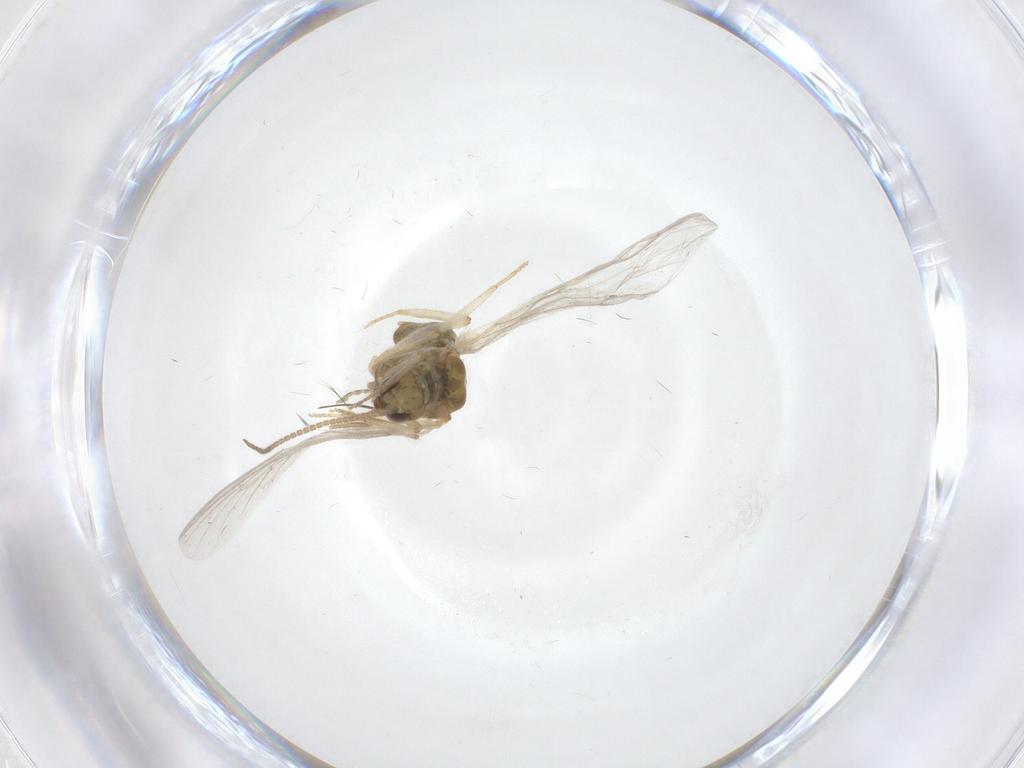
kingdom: Animalia
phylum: Arthropoda
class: Insecta
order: Diptera
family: Chironomidae
